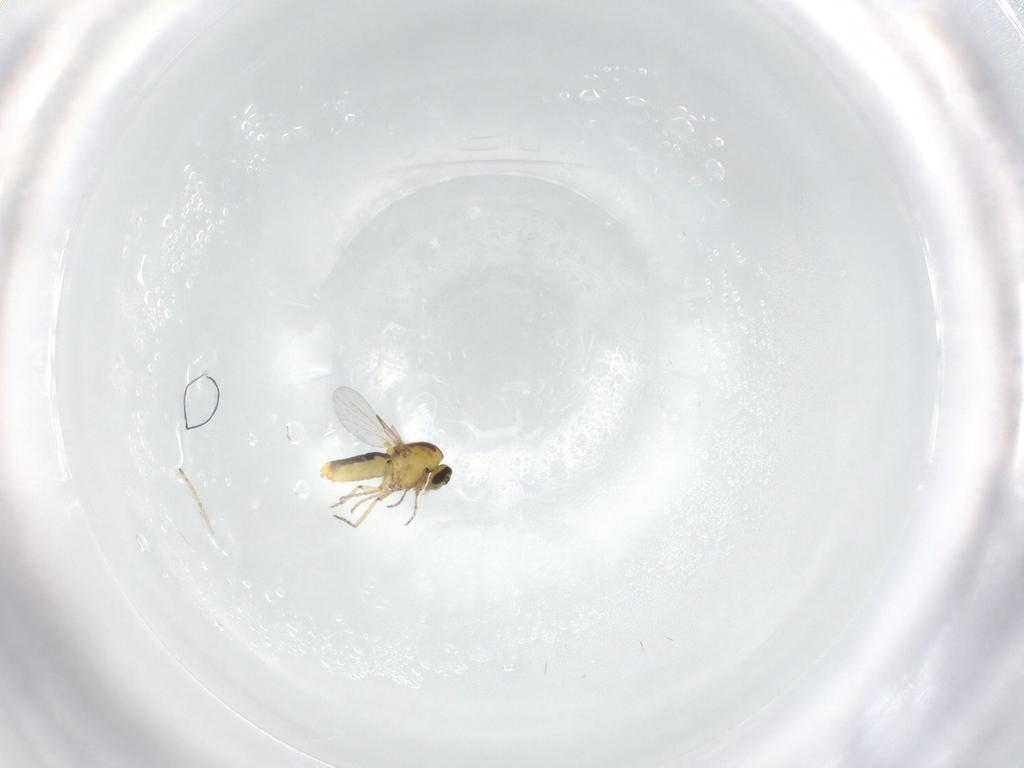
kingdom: Animalia
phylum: Arthropoda
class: Insecta
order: Diptera
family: Ceratopogonidae
